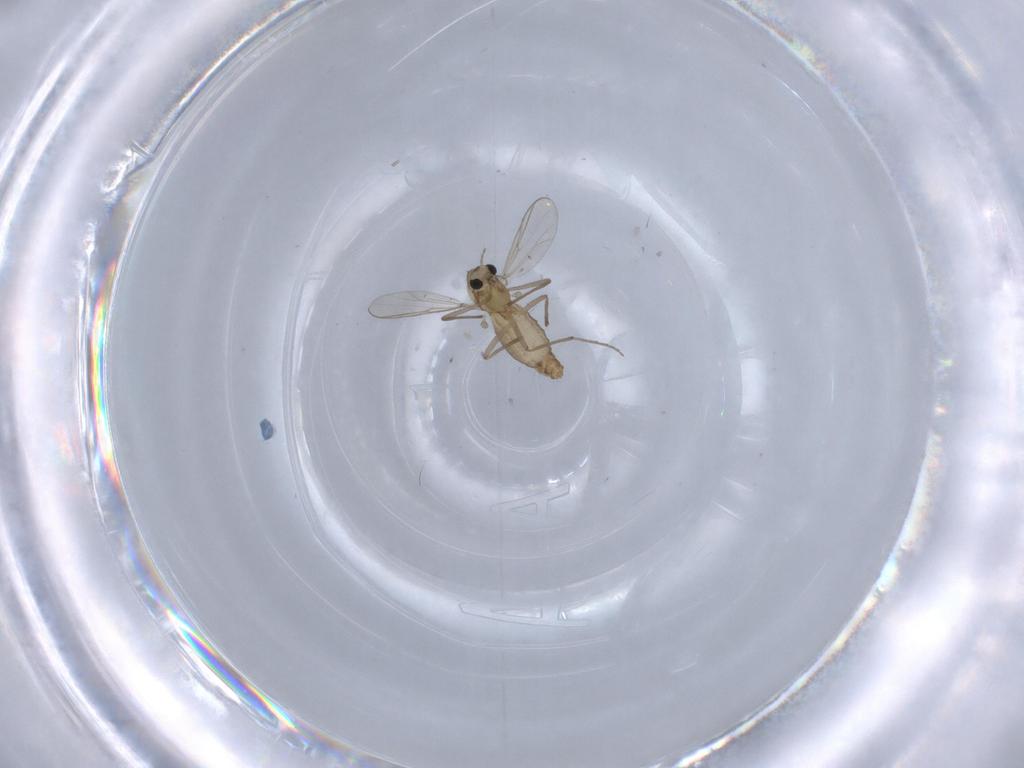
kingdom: Animalia
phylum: Arthropoda
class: Insecta
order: Diptera
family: Chironomidae
